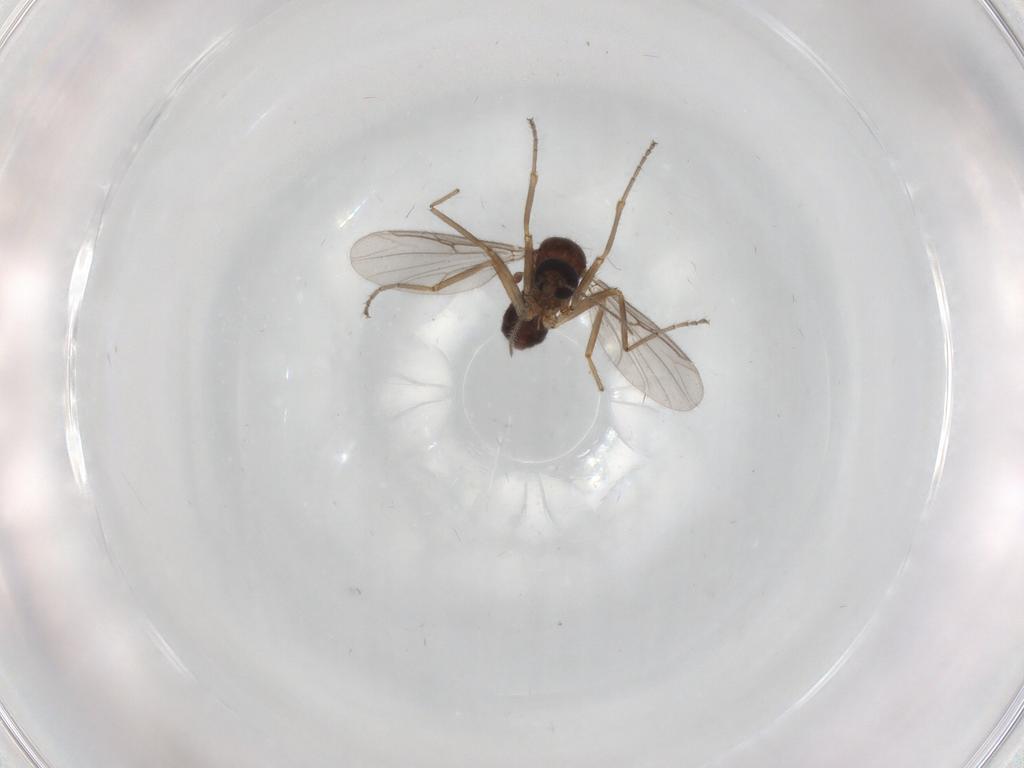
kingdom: Animalia
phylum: Arthropoda
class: Insecta
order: Diptera
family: Ceratopogonidae
